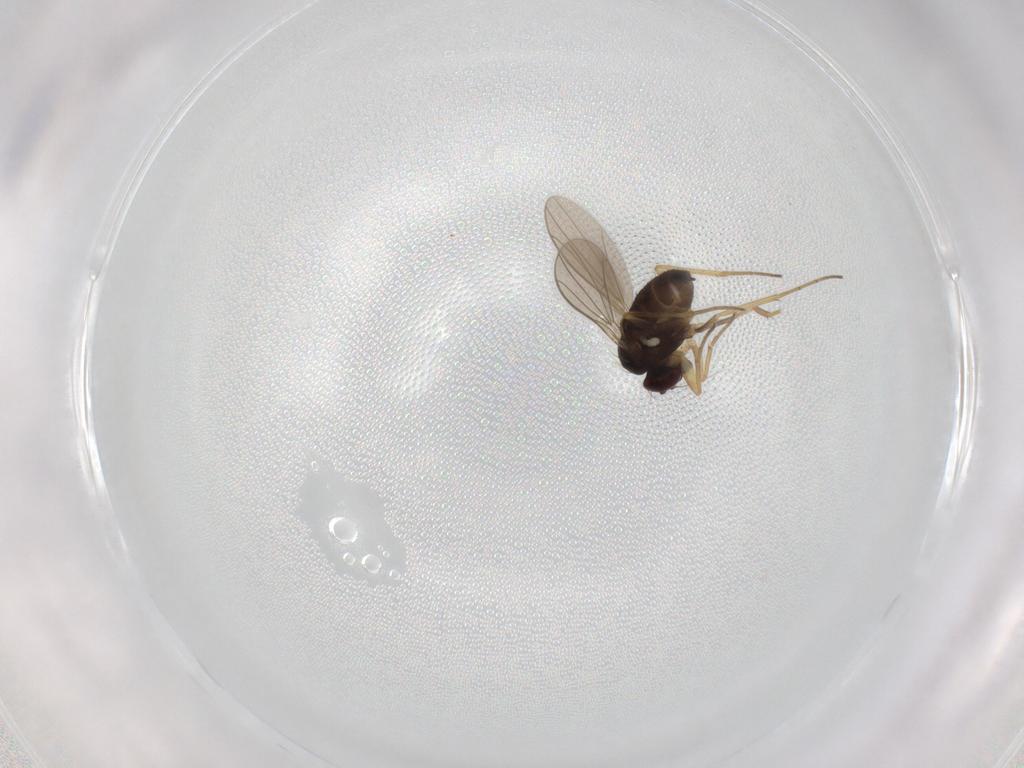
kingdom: Animalia
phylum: Arthropoda
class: Insecta
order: Diptera
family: Dolichopodidae
